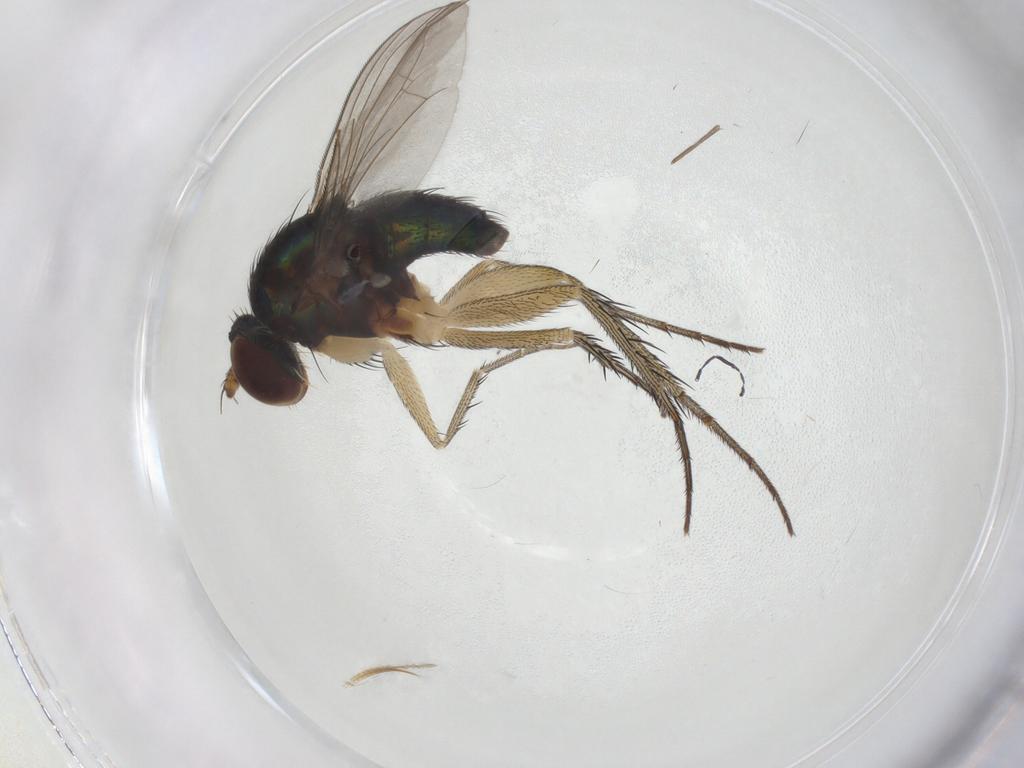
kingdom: Animalia
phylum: Arthropoda
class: Insecta
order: Diptera
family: Dolichopodidae
